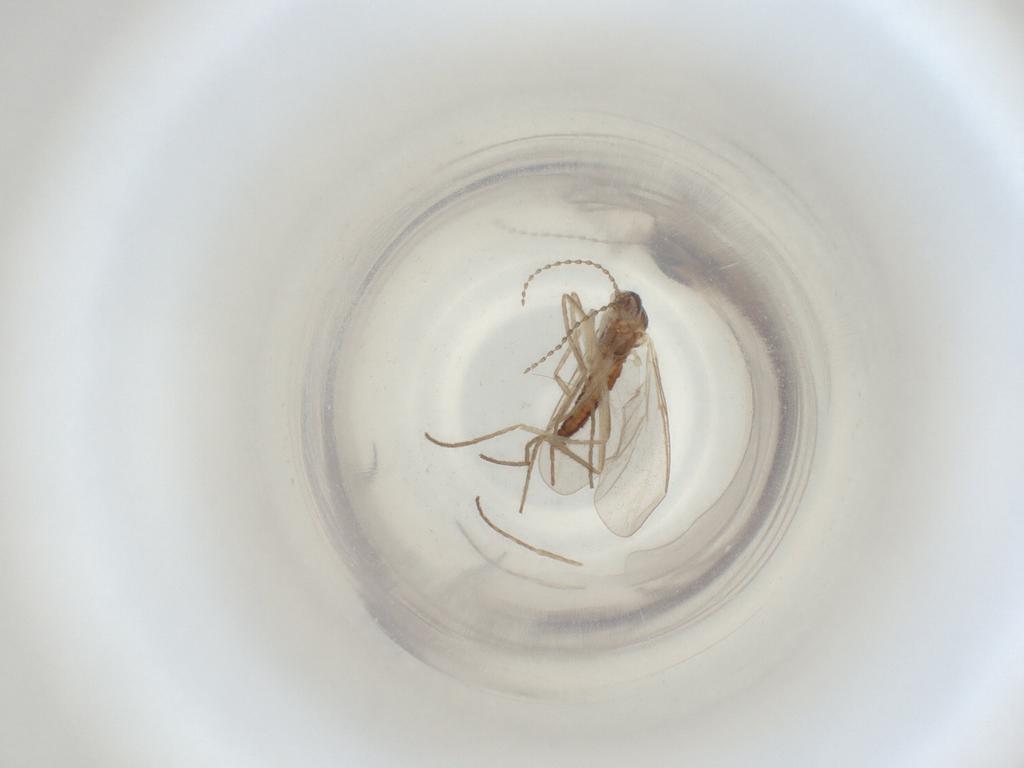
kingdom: Animalia
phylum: Arthropoda
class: Insecta
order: Diptera
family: Cecidomyiidae
